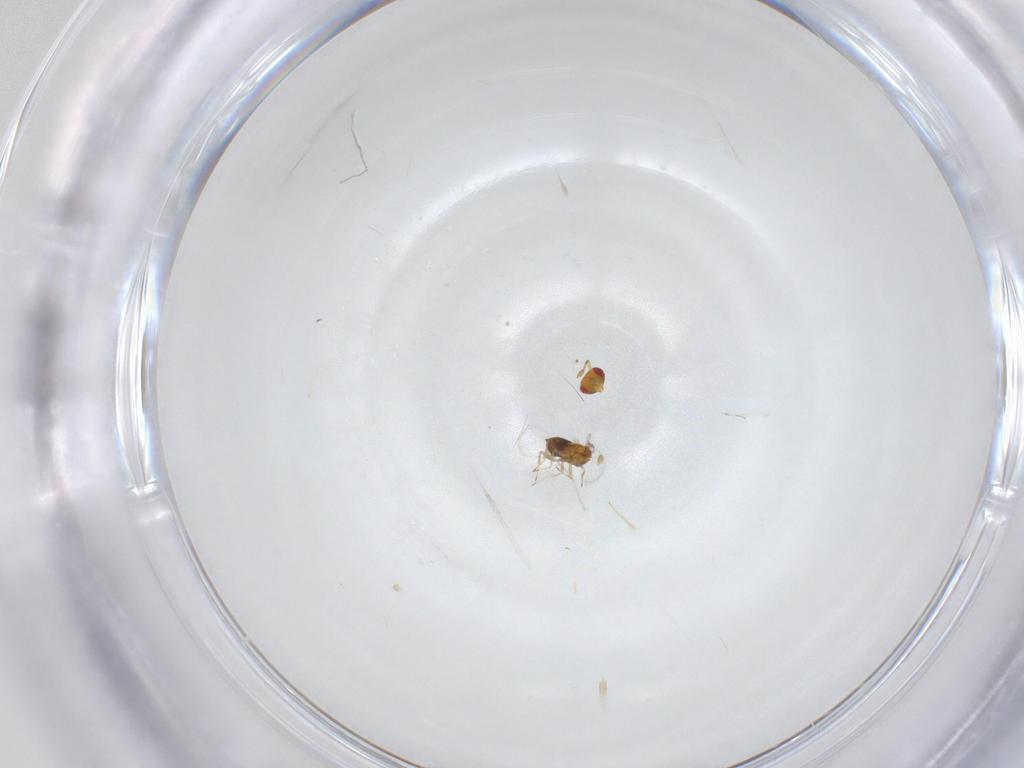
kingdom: Animalia
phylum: Arthropoda
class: Insecta
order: Hymenoptera
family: Trichogrammatidae
